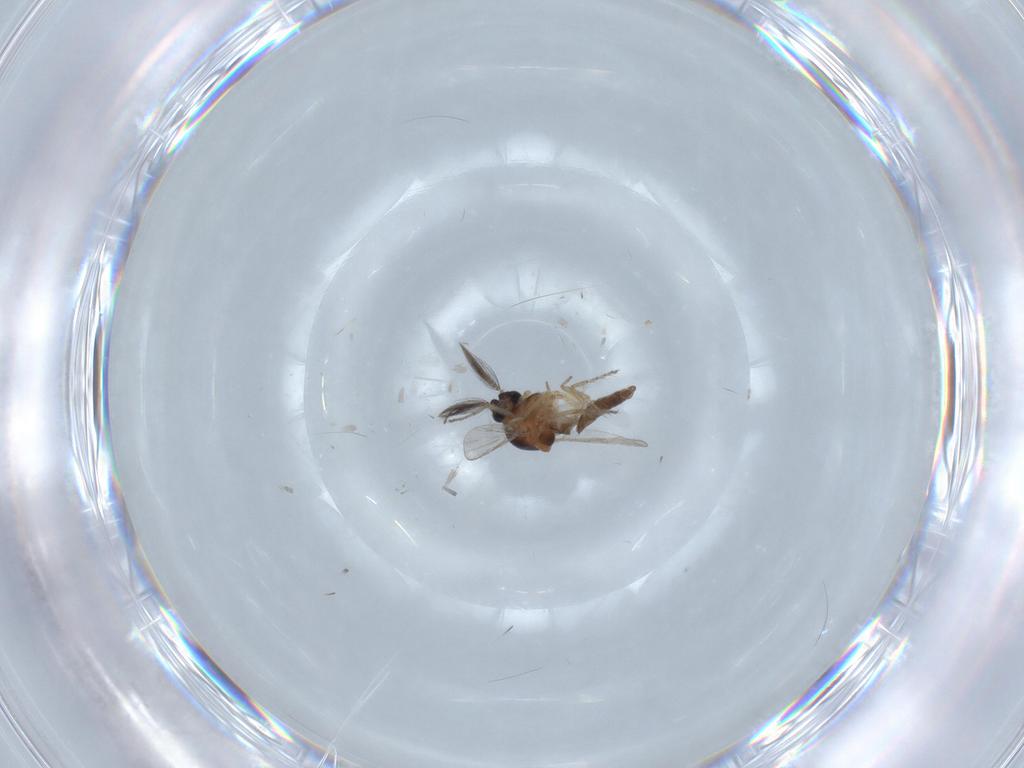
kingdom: Animalia
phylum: Arthropoda
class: Insecta
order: Diptera
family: Ceratopogonidae
